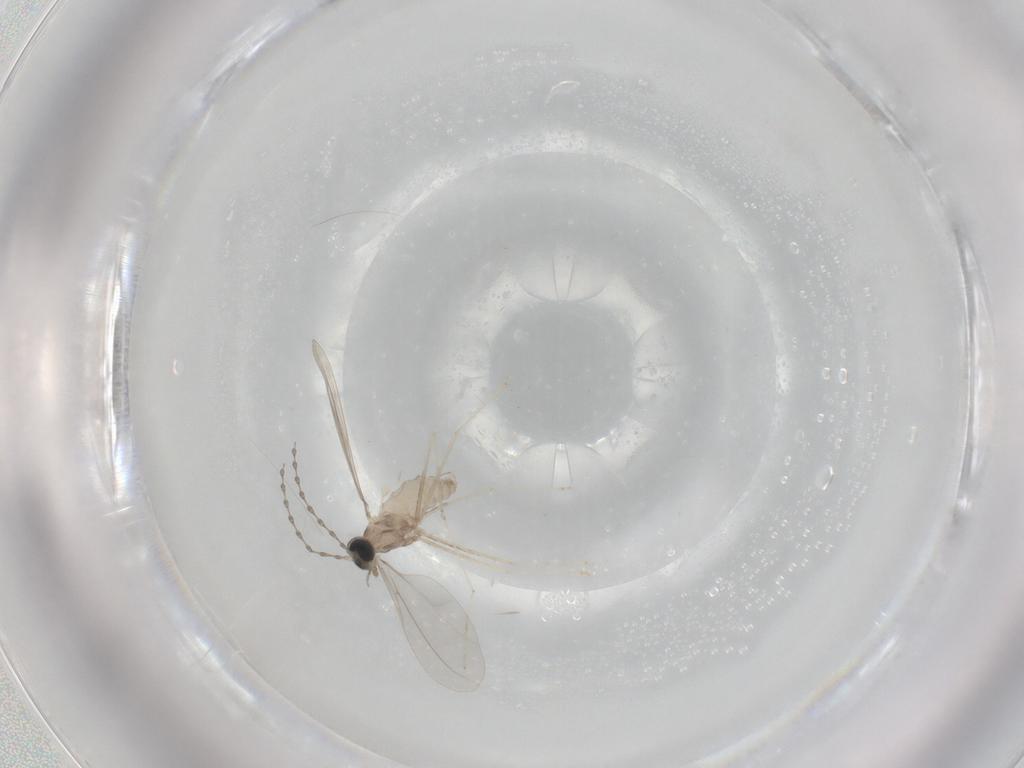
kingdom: Animalia
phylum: Arthropoda
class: Insecta
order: Diptera
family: Cecidomyiidae
